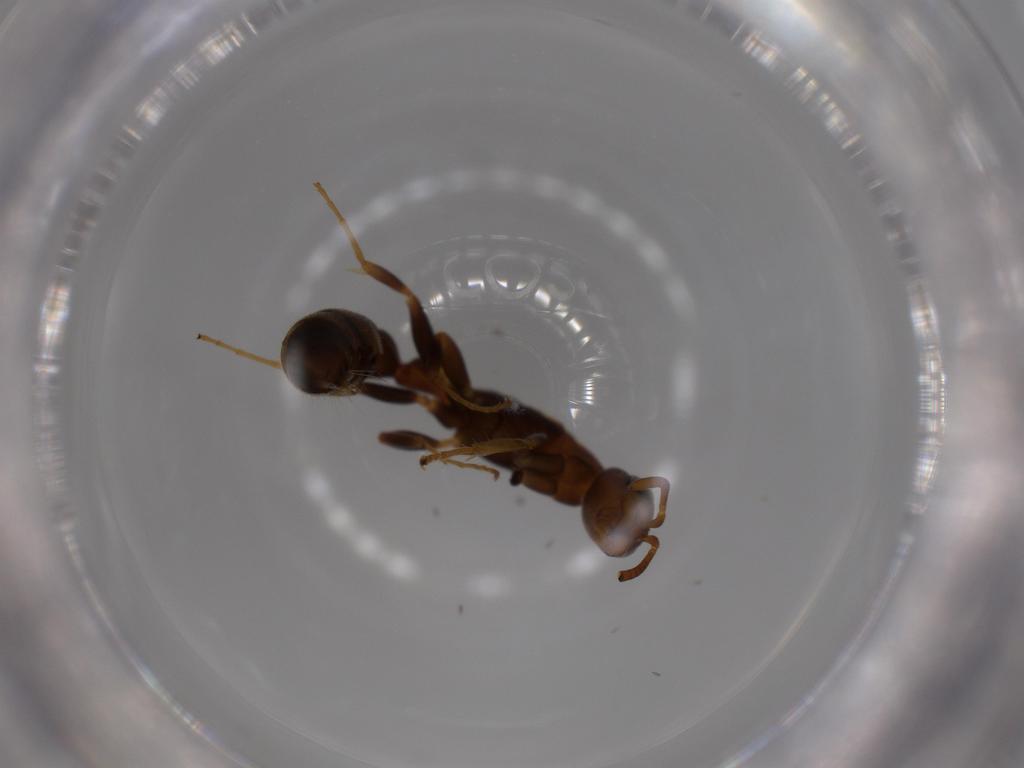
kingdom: Animalia
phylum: Arthropoda
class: Insecta
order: Hymenoptera
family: Formicidae
